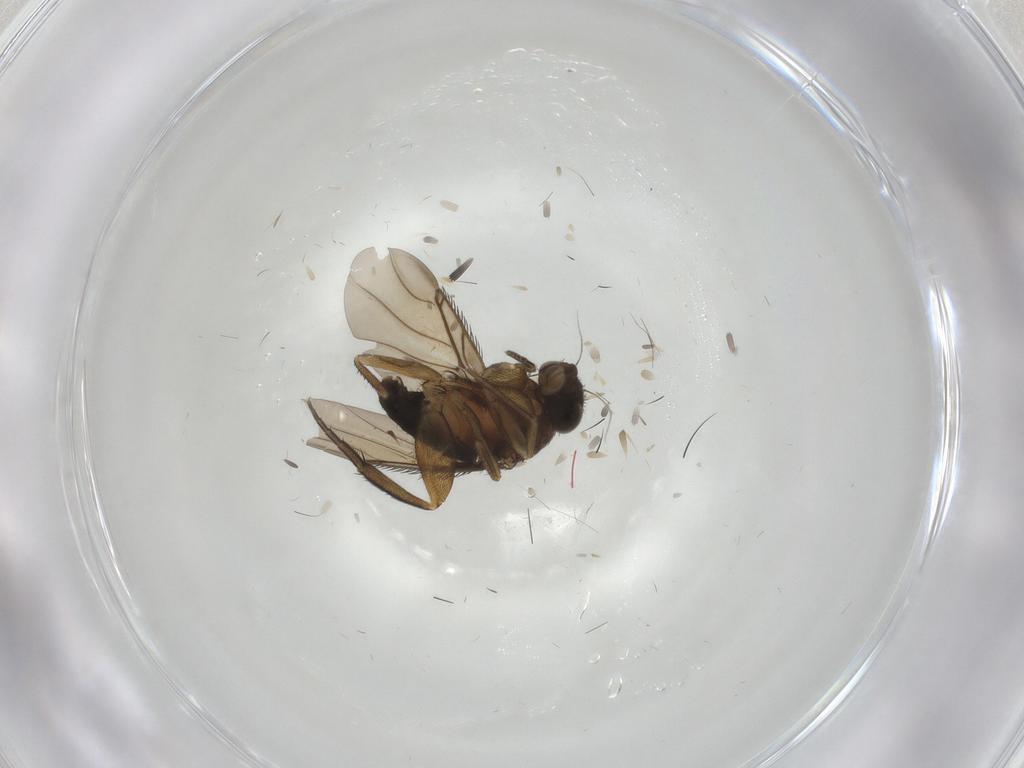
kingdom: Animalia
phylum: Arthropoda
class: Insecta
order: Diptera
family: Phoridae
